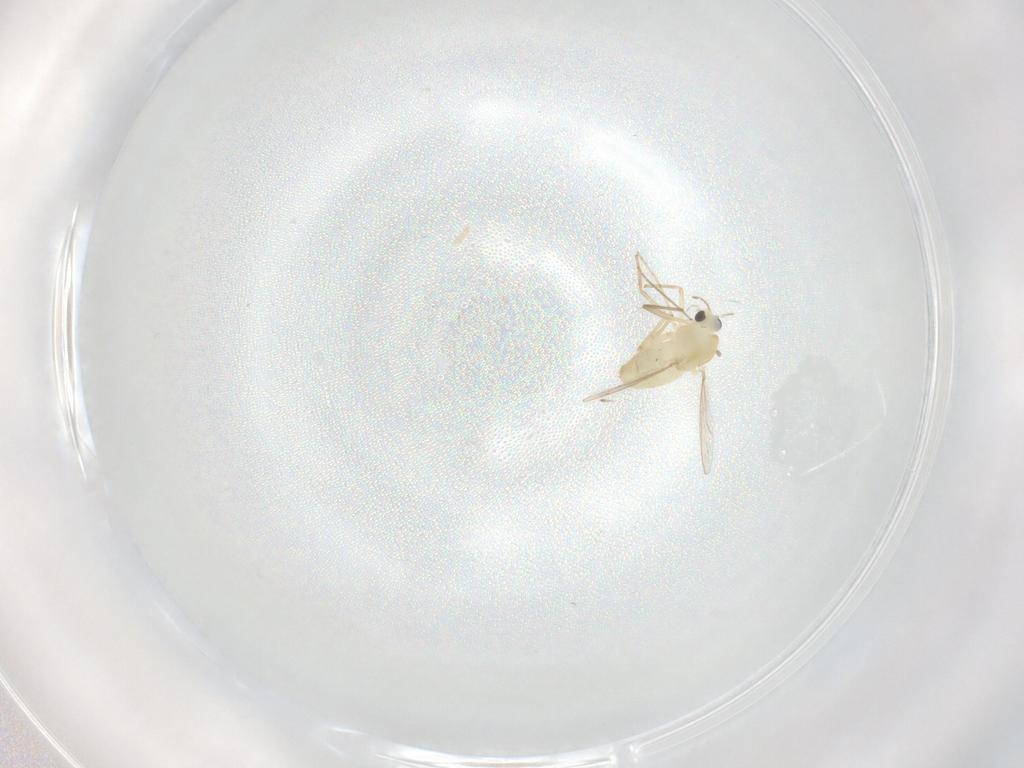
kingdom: Animalia
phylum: Arthropoda
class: Insecta
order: Diptera
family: Chironomidae
